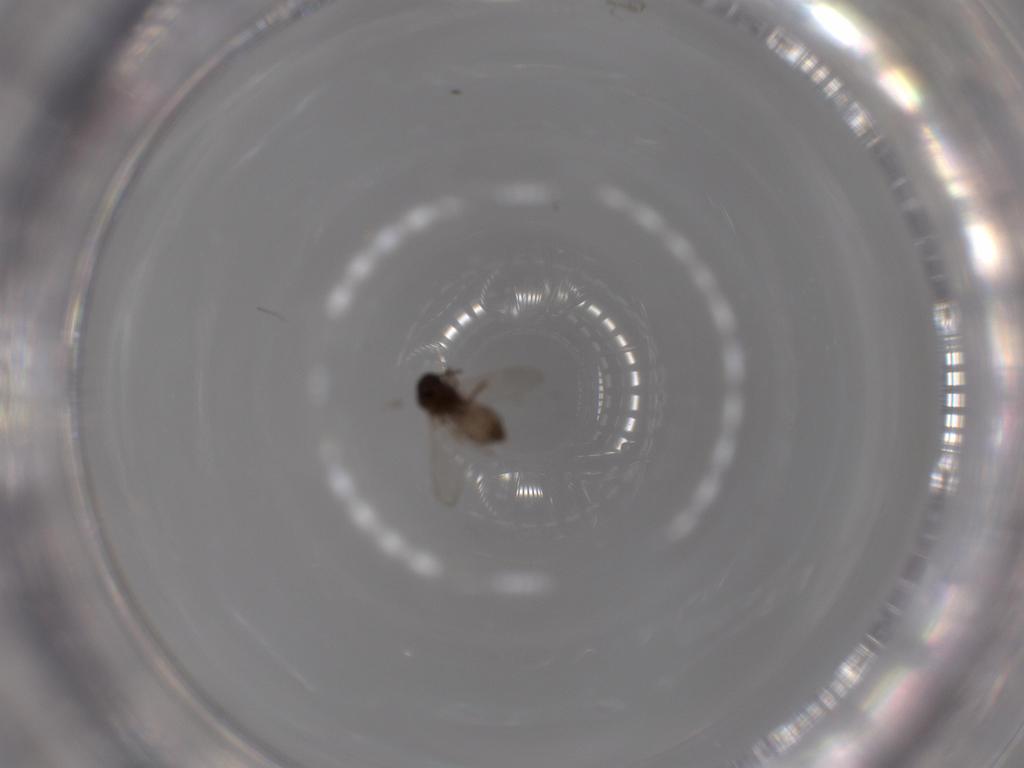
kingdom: Animalia
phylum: Arthropoda
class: Insecta
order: Diptera
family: Ceratopogonidae
